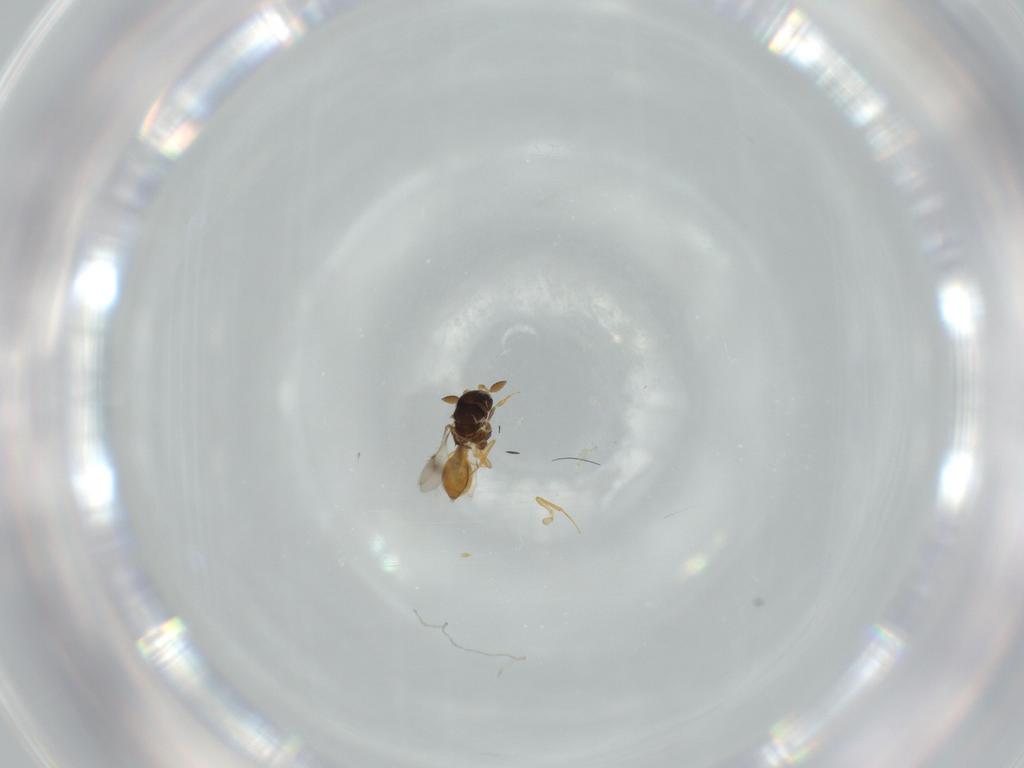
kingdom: Animalia
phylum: Arthropoda
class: Insecta
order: Hymenoptera
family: Scelionidae
